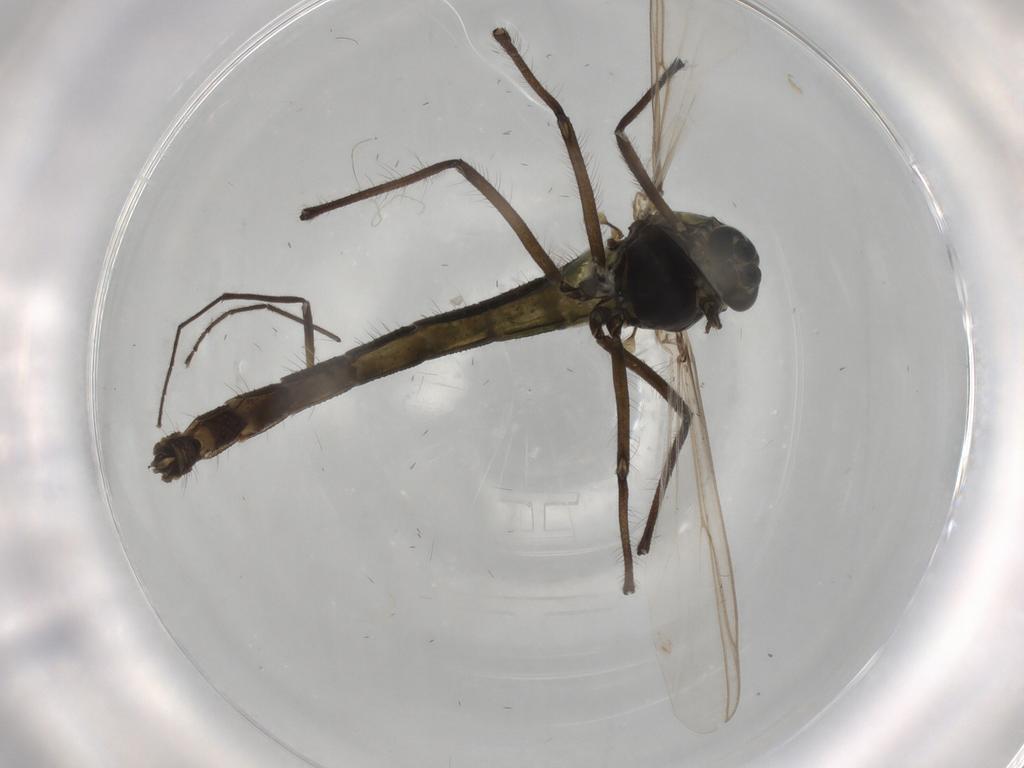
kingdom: Animalia
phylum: Arthropoda
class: Insecta
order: Diptera
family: Chironomidae
